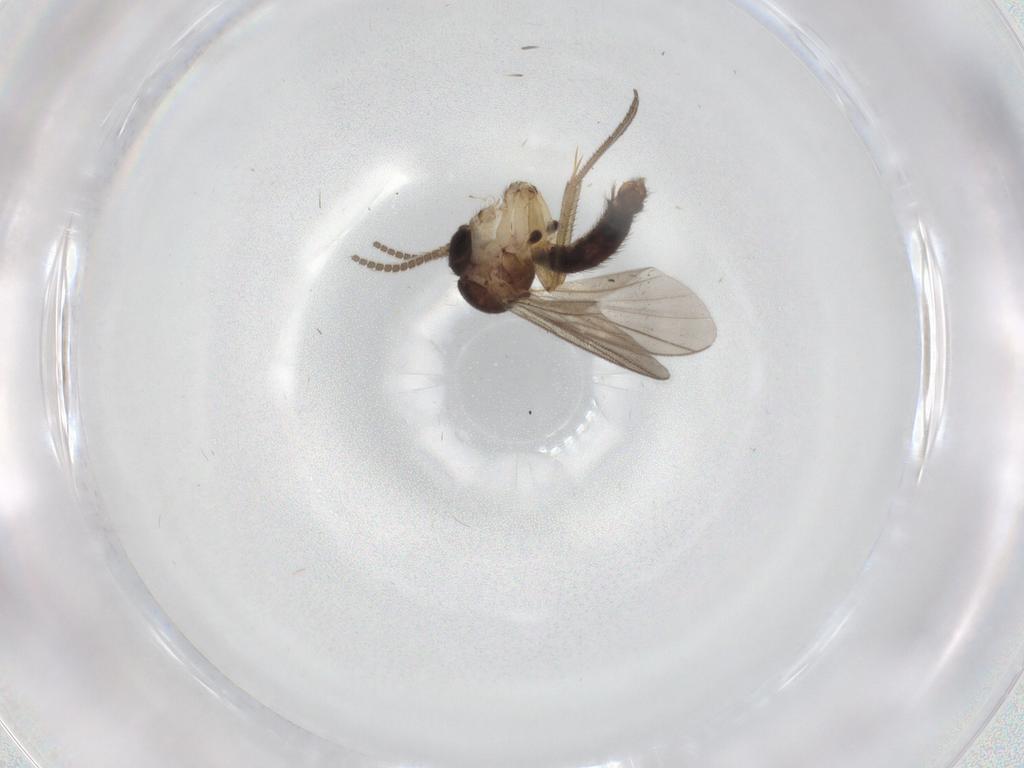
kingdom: Animalia
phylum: Arthropoda
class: Insecta
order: Diptera
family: Mycetophilidae
